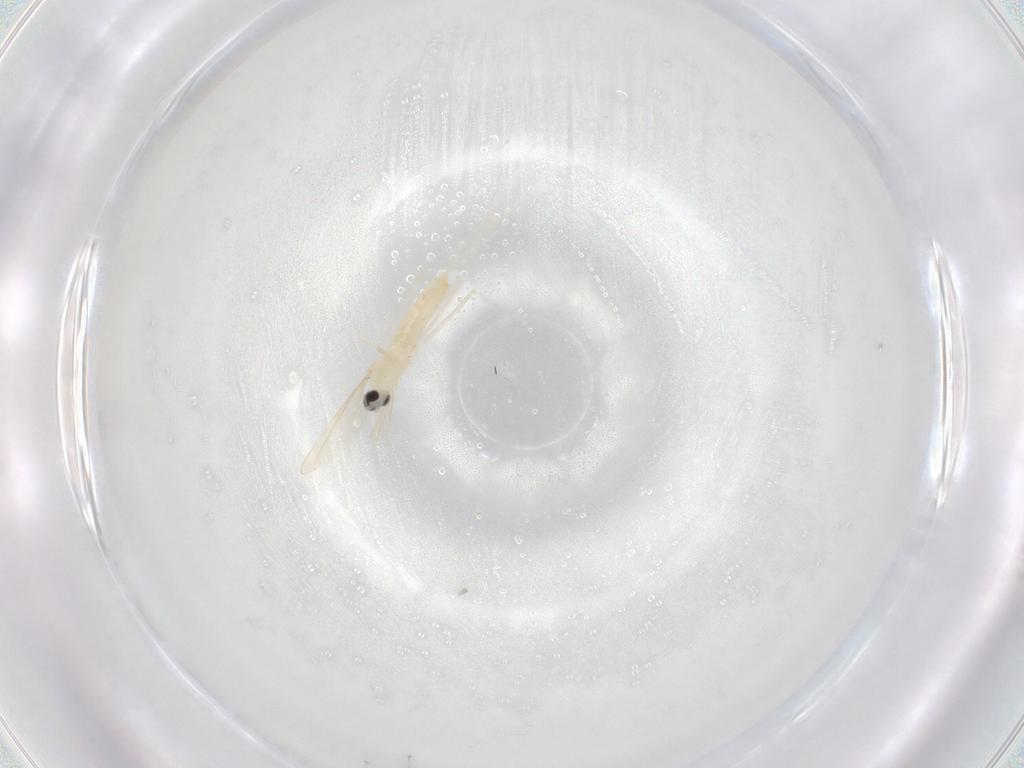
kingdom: Animalia
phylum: Arthropoda
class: Insecta
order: Diptera
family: Cecidomyiidae
